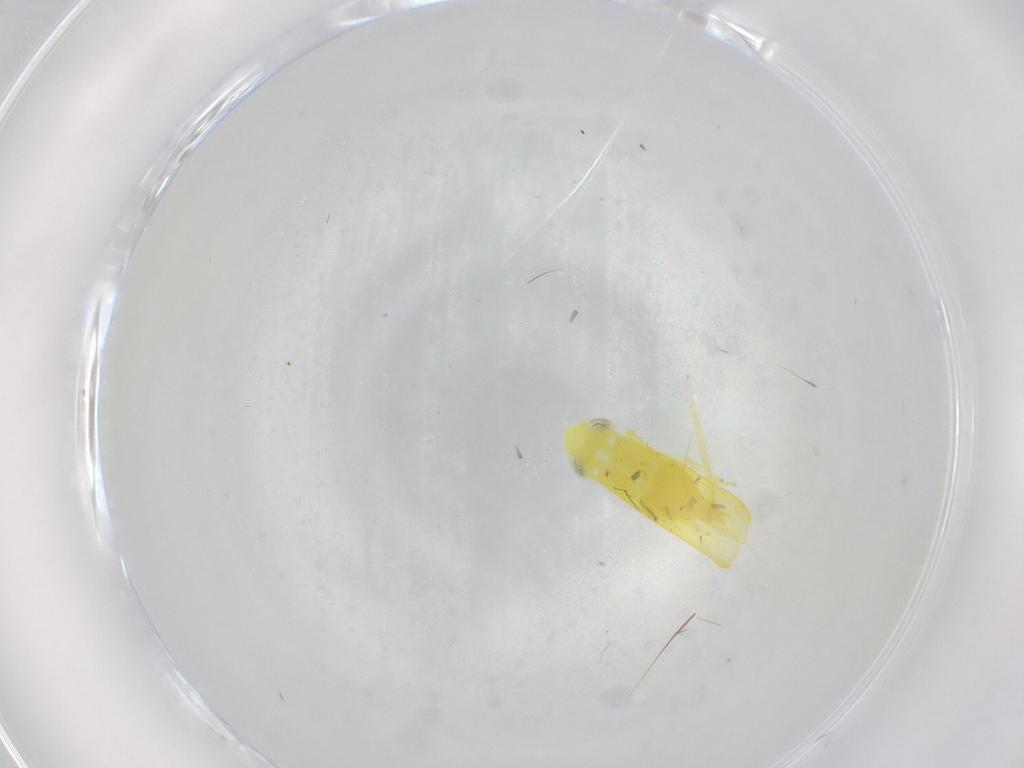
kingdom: Animalia
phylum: Arthropoda
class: Insecta
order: Hemiptera
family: Cicadellidae
